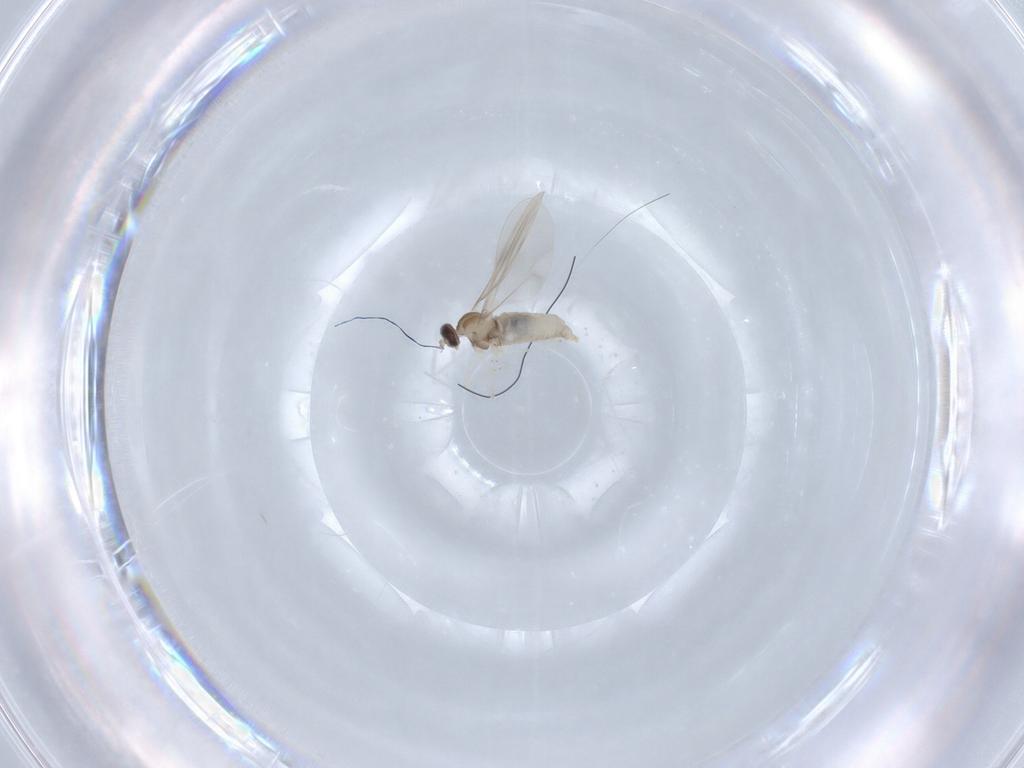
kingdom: Animalia
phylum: Arthropoda
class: Insecta
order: Diptera
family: Cecidomyiidae
